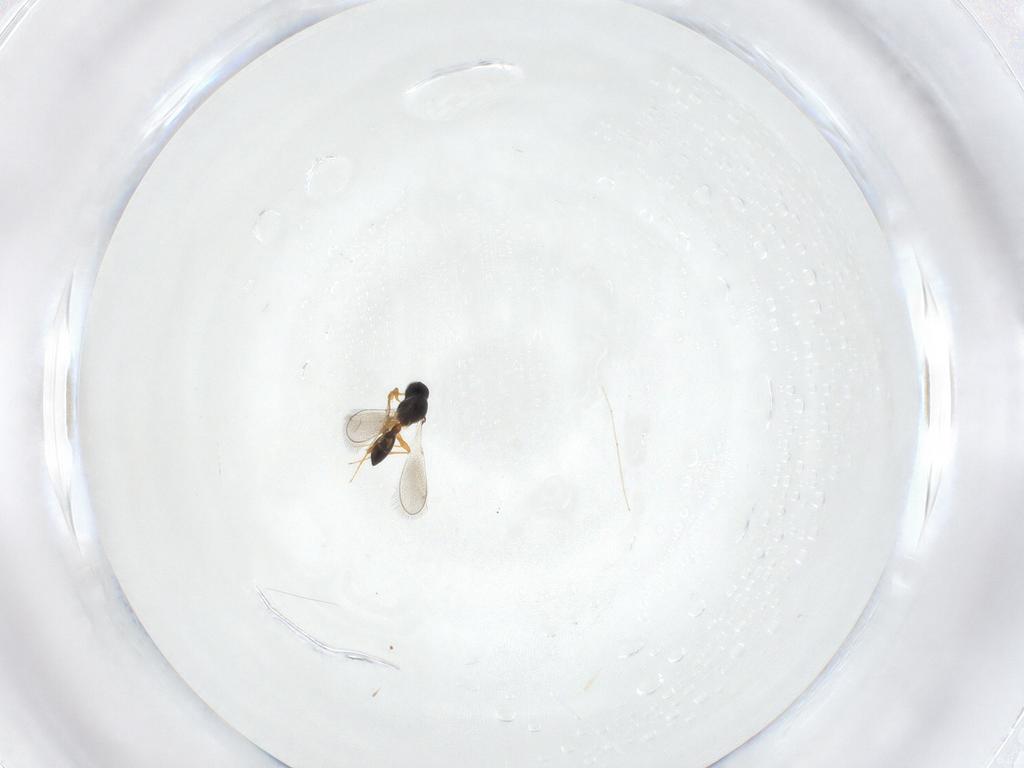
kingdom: Animalia
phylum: Arthropoda
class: Insecta
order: Hymenoptera
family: Platygastridae
